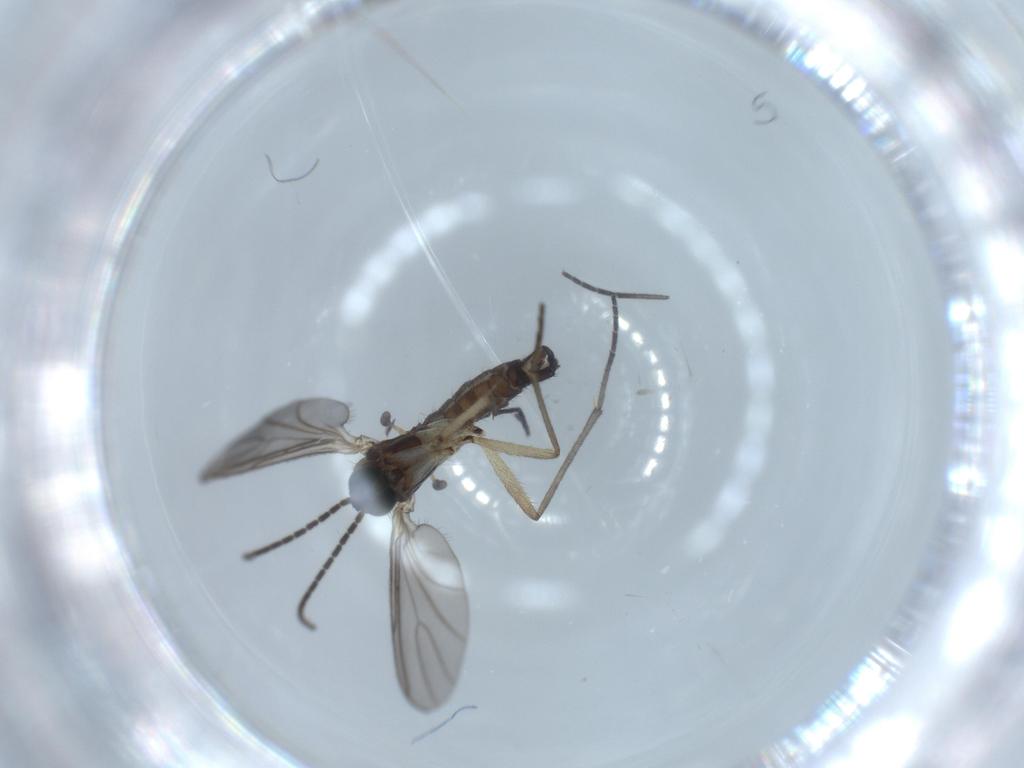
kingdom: Animalia
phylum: Arthropoda
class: Insecta
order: Diptera
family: Sciaridae
